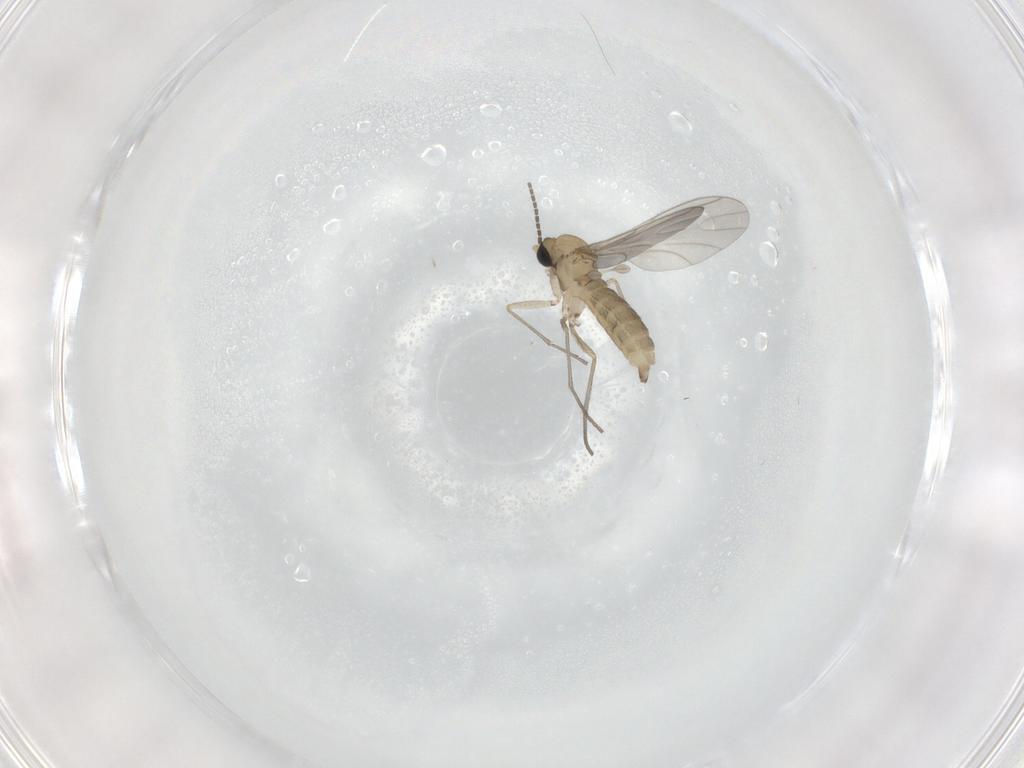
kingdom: Animalia
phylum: Arthropoda
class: Insecta
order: Diptera
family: Sciaridae
